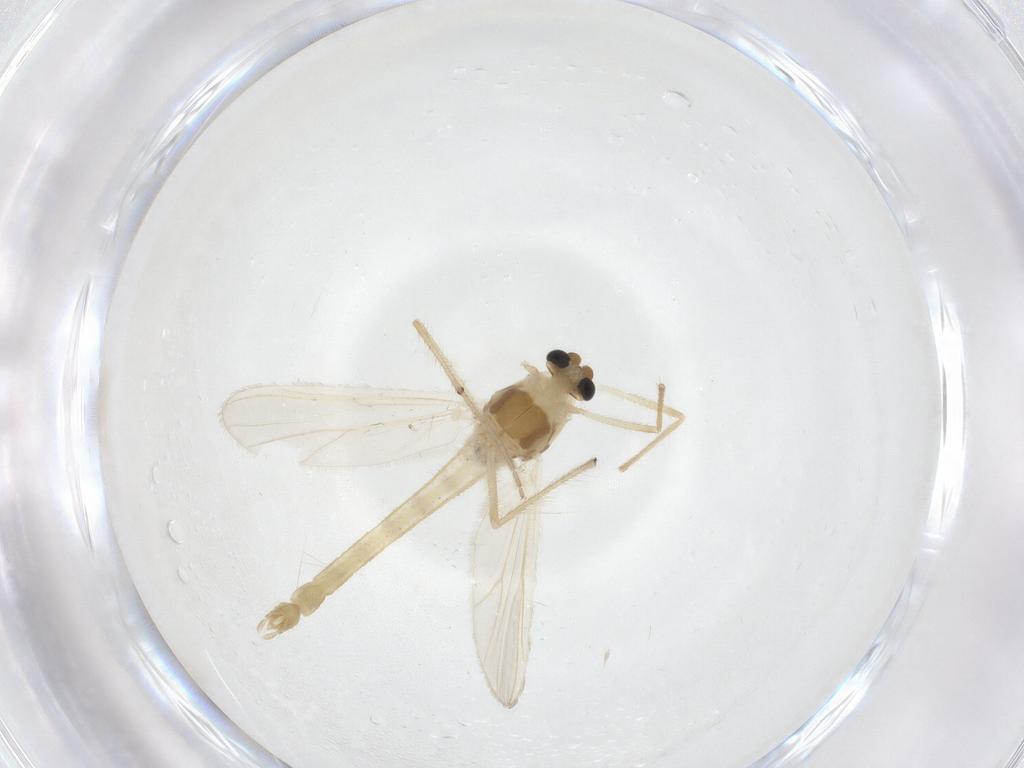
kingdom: Animalia
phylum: Arthropoda
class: Insecta
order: Diptera
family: Chironomidae
